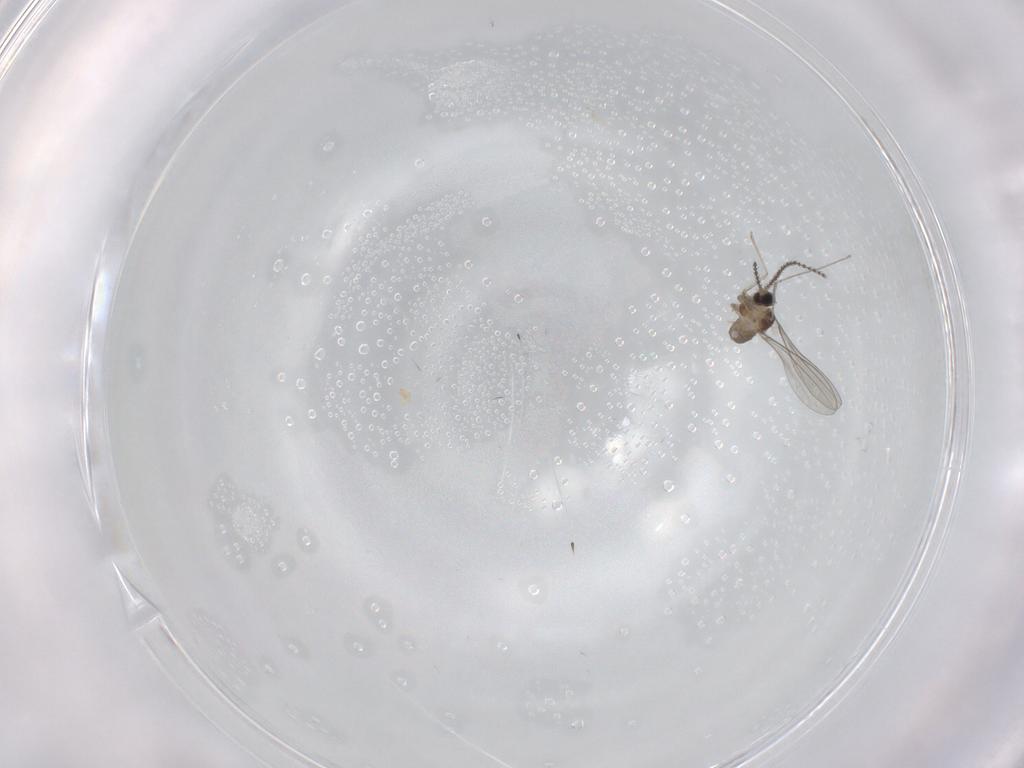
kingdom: Animalia
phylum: Arthropoda
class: Insecta
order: Diptera
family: Cecidomyiidae
